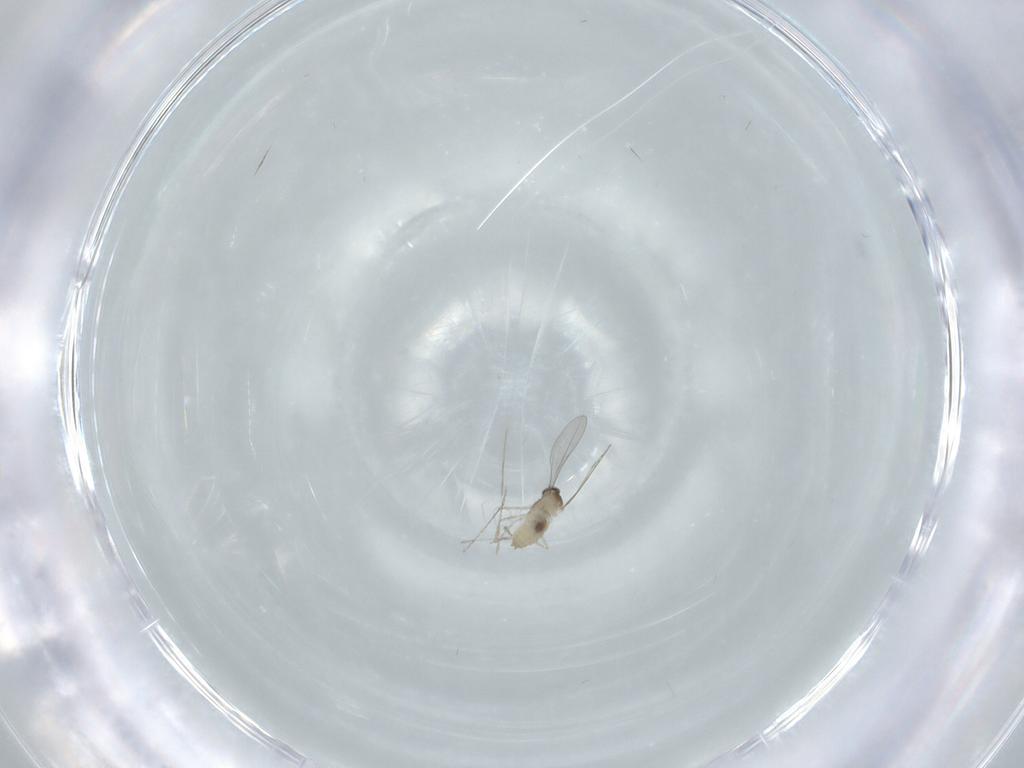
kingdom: Animalia
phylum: Arthropoda
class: Insecta
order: Diptera
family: Cecidomyiidae
